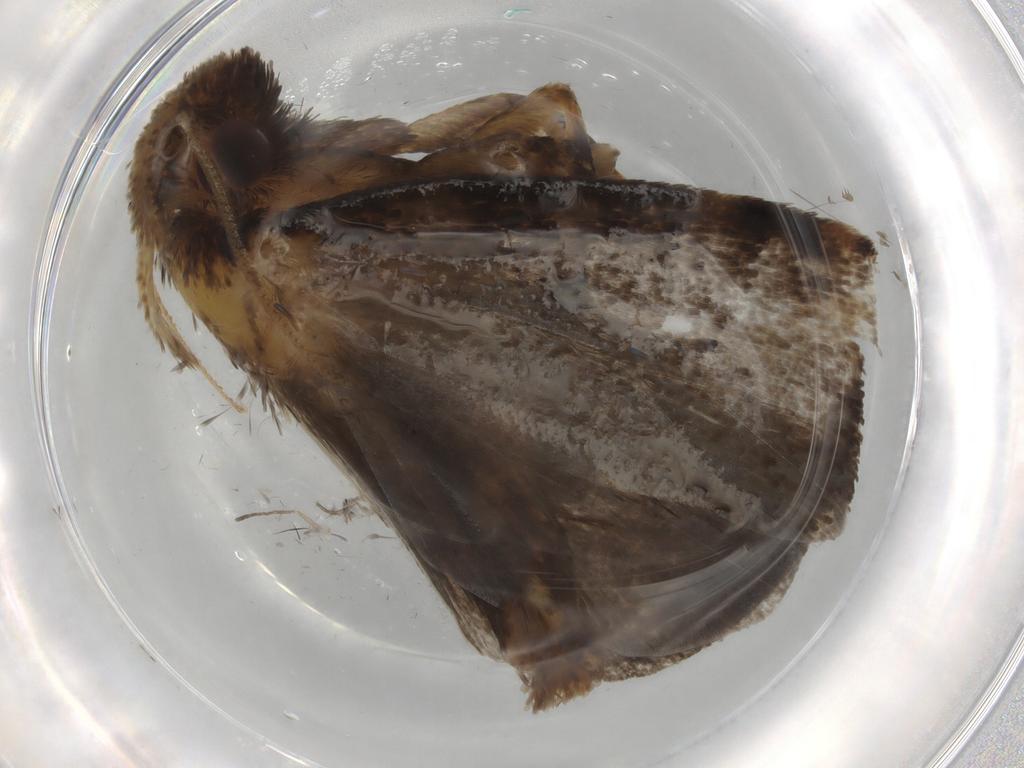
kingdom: Animalia
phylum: Arthropoda
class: Insecta
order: Lepidoptera
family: Tineidae
